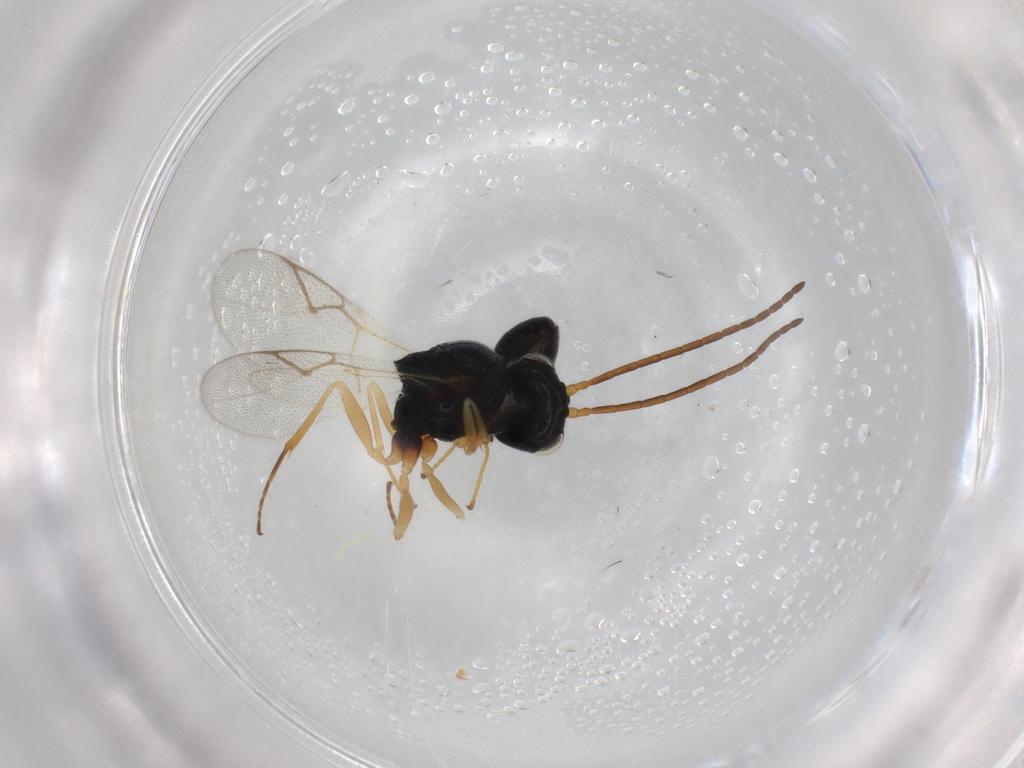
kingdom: Animalia
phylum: Arthropoda
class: Insecta
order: Hymenoptera
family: Figitidae
